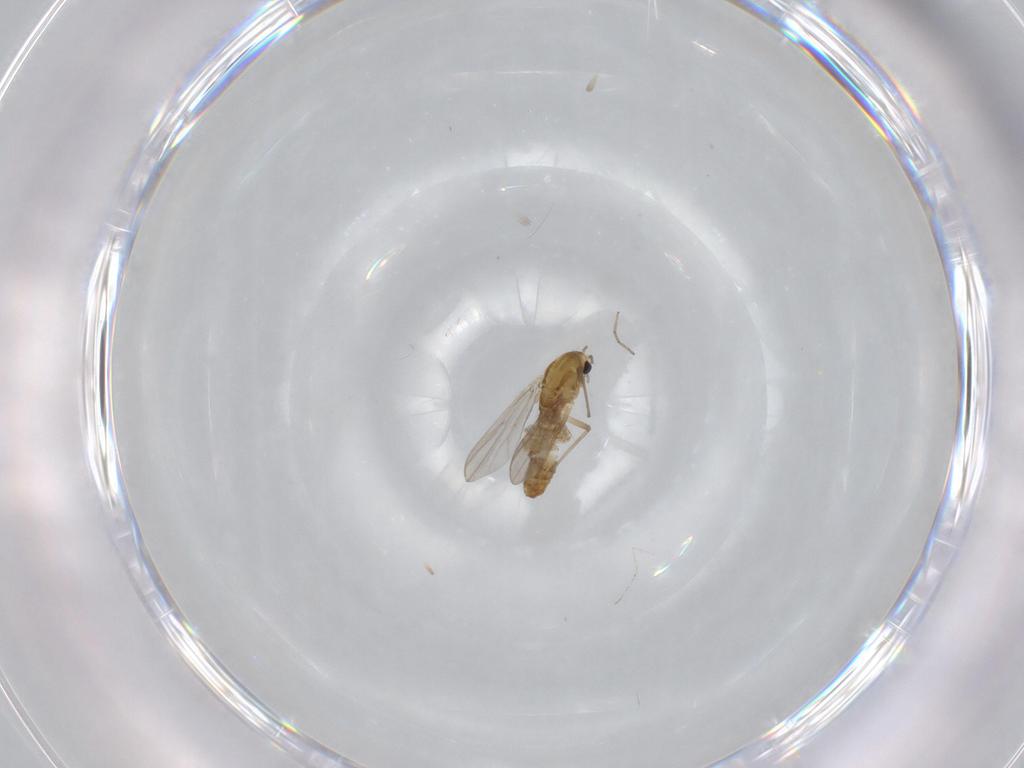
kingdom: Animalia
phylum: Arthropoda
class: Insecta
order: Diptera
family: Chironomidae
